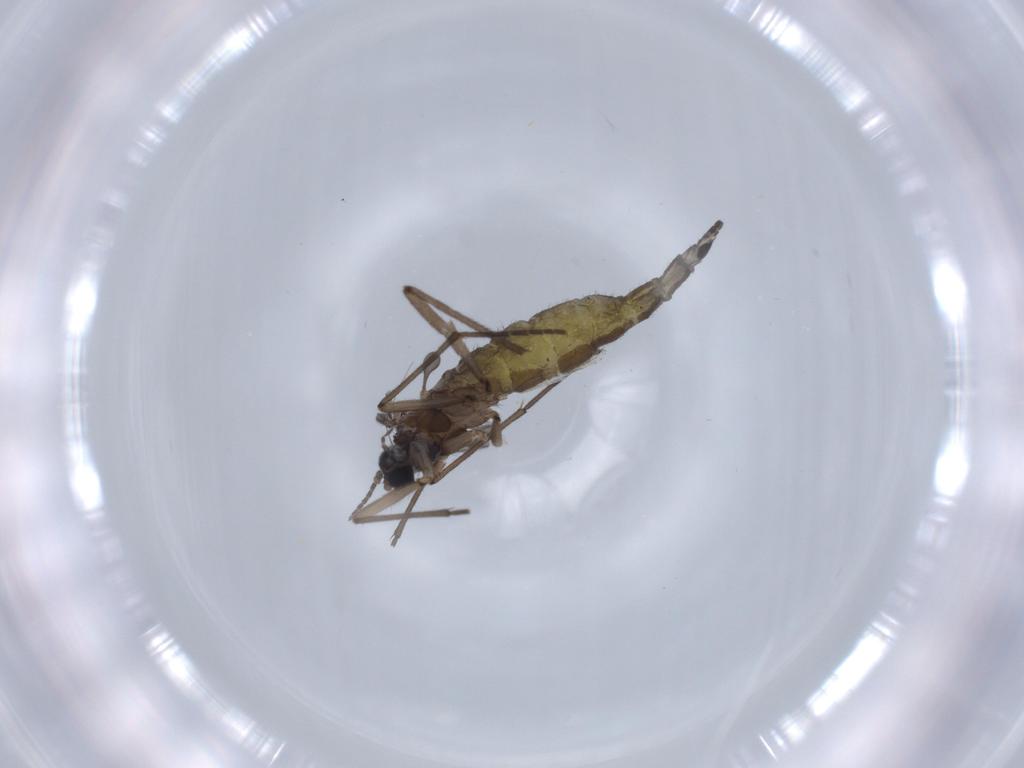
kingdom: Animalia
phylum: Arthropoda
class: Insecta
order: Diptera
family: Sciaridae
